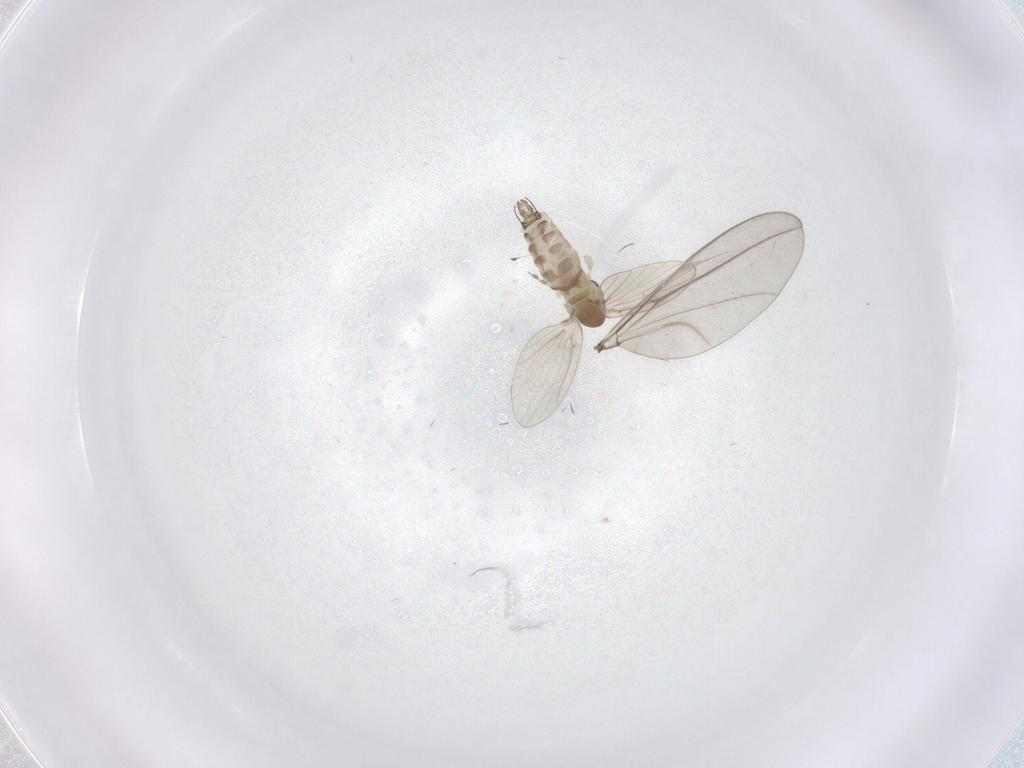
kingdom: Animalia
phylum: Arthropoda
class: Insecta
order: Diptera
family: Cecidomyiidae
